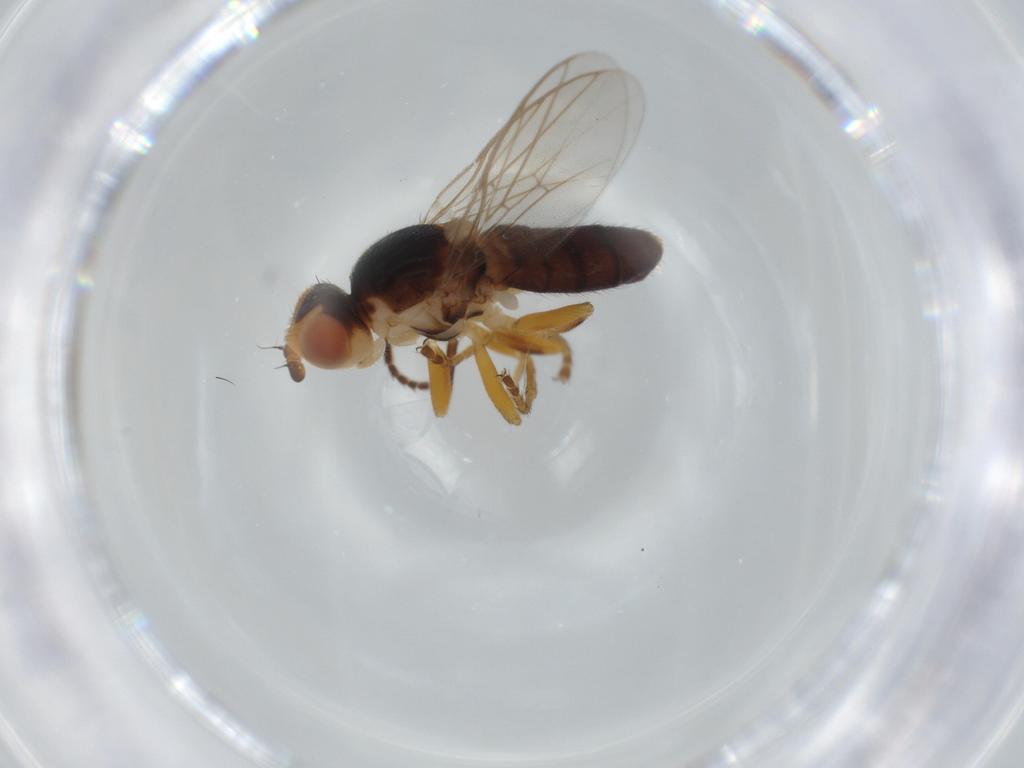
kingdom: Animalia
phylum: Arthropoda
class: Insecta
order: Diptera
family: Chloropidae
